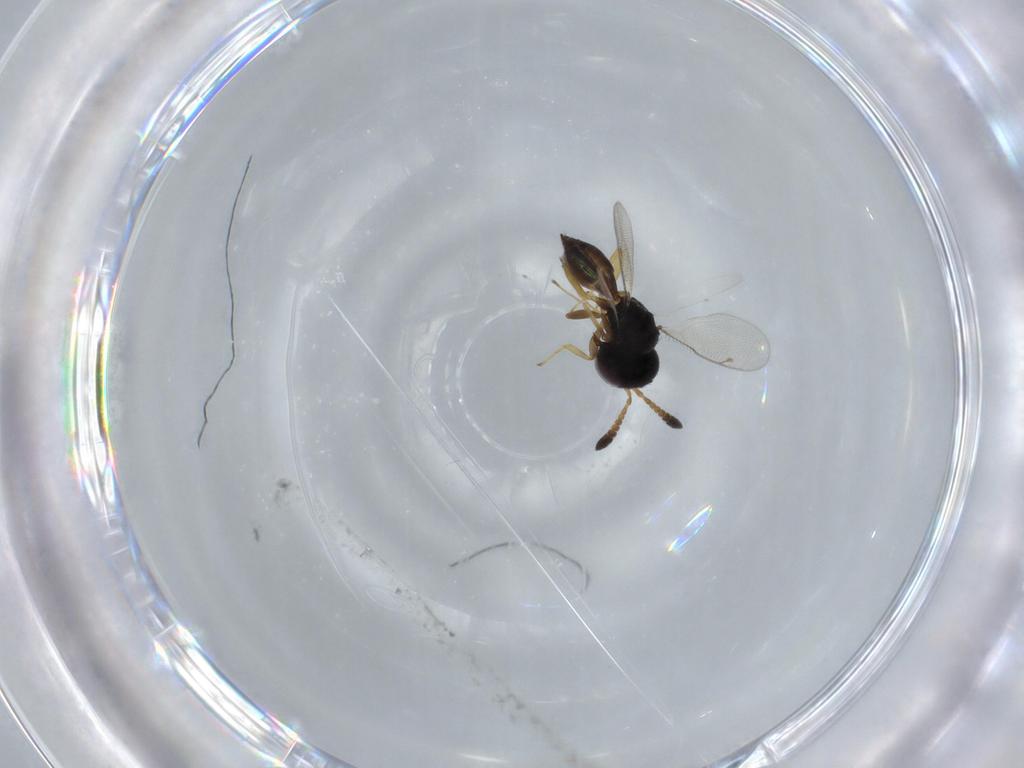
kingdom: Animalia
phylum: Arthropoda
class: Insecta
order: Hymenoptera
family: Pteromalidae
